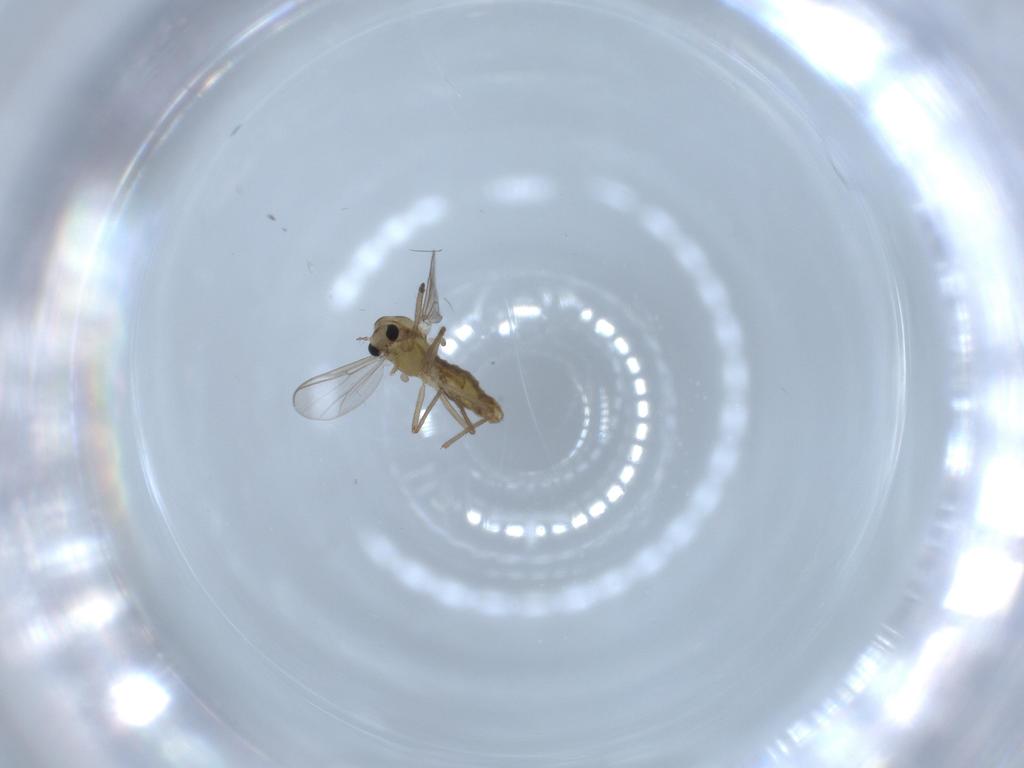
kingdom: Animalia
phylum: Arthropoda
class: Insecta
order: Diptera
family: Chironomidae
